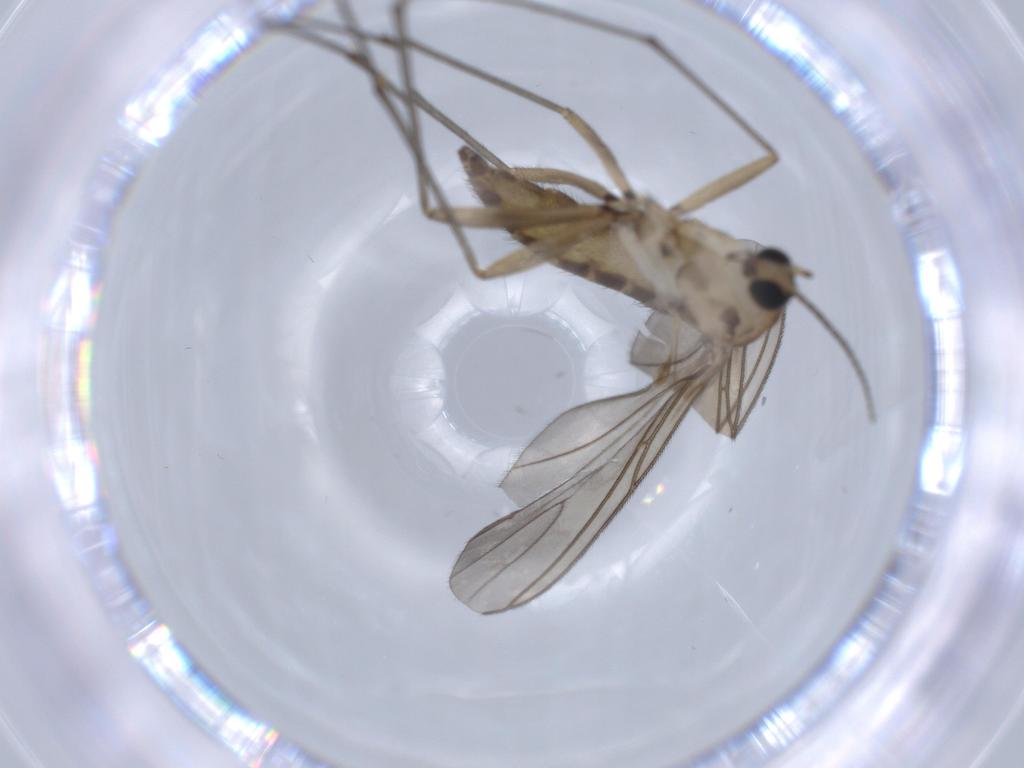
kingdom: Animalia
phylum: Arthropoda
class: Insecta
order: Diptera
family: Sciaridae
